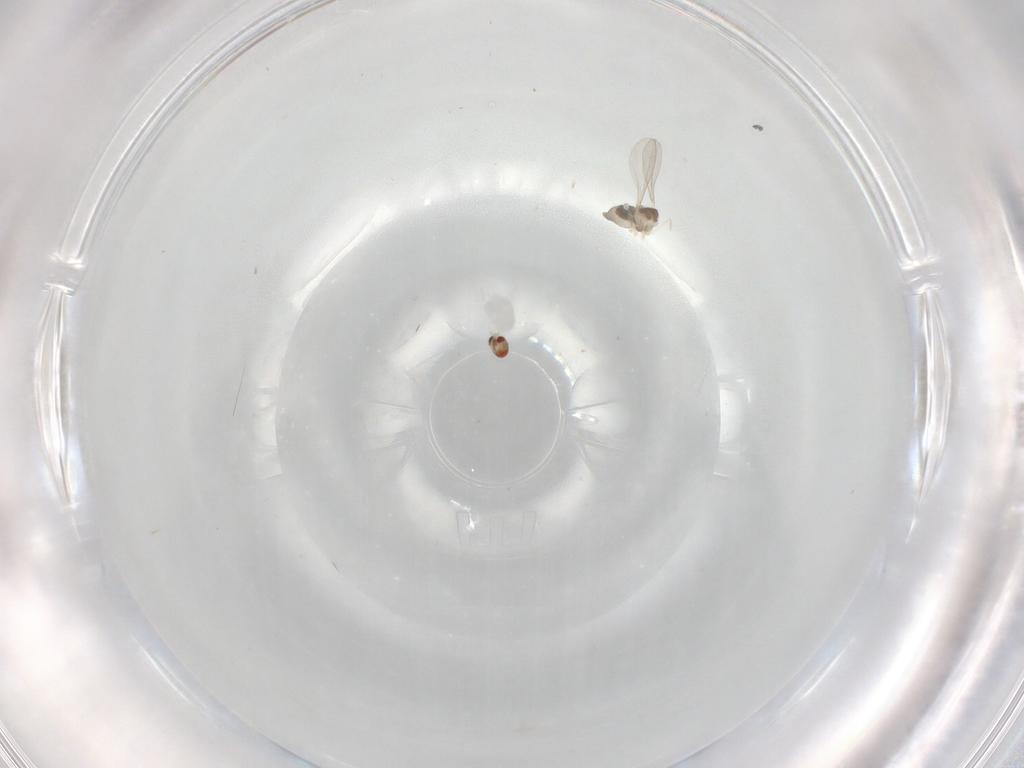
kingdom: Animalia
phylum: Arthropoda
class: Insecta
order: Diptera
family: Cecidomyiidae
